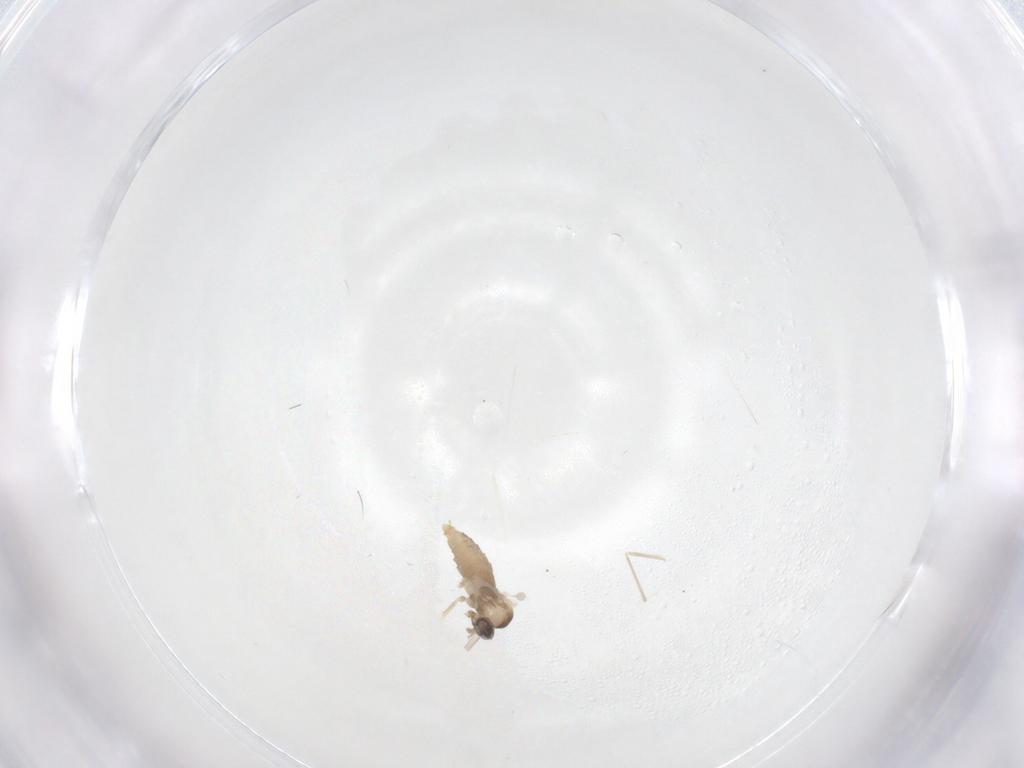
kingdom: Animalia
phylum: Arthropoda
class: Insecta
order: Diptera
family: Cecidomyiidae
